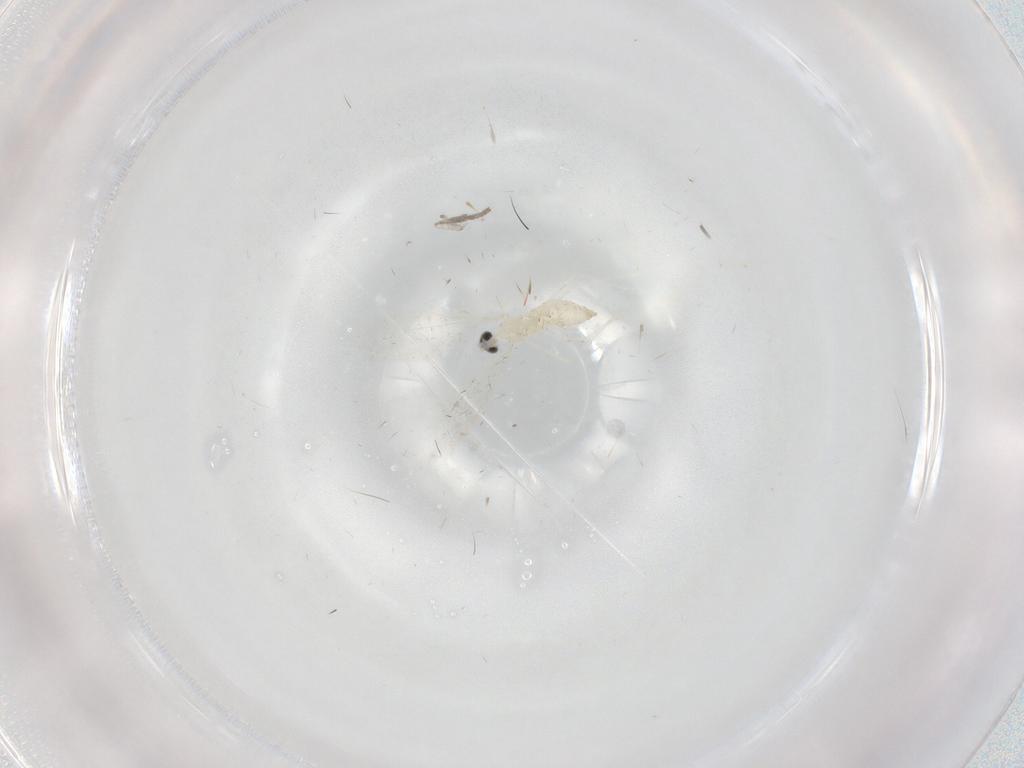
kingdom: Animalia
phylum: Arthropoda
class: Insecta
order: Diptera
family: Cecidomyiidae
